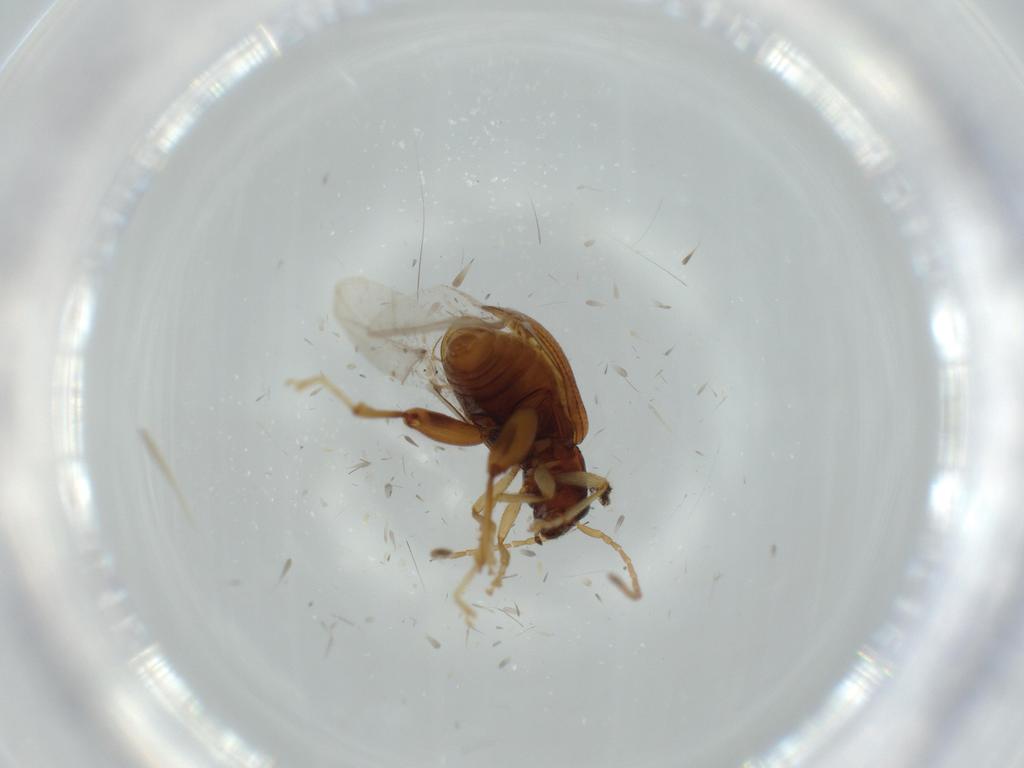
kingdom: Animalia
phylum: Arthropoda
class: Insecta
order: Coleoptera
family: Chrysomelidae
